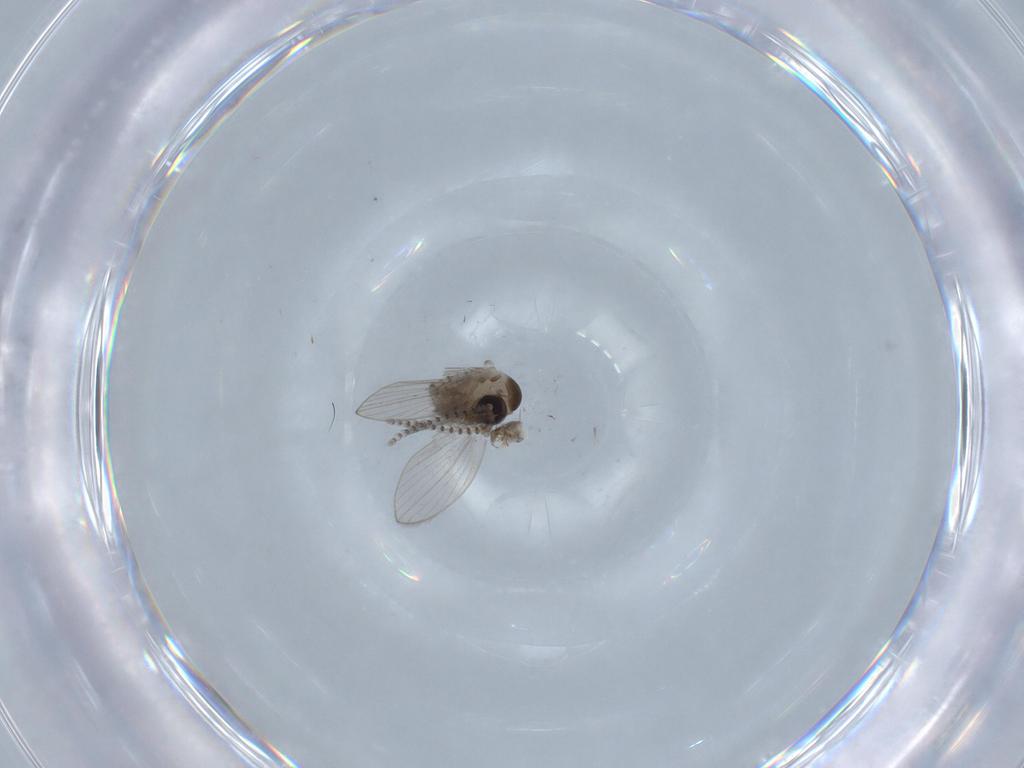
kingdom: Animalia
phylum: Arthropoda
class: Insecta
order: Diptera
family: Psychodidae
